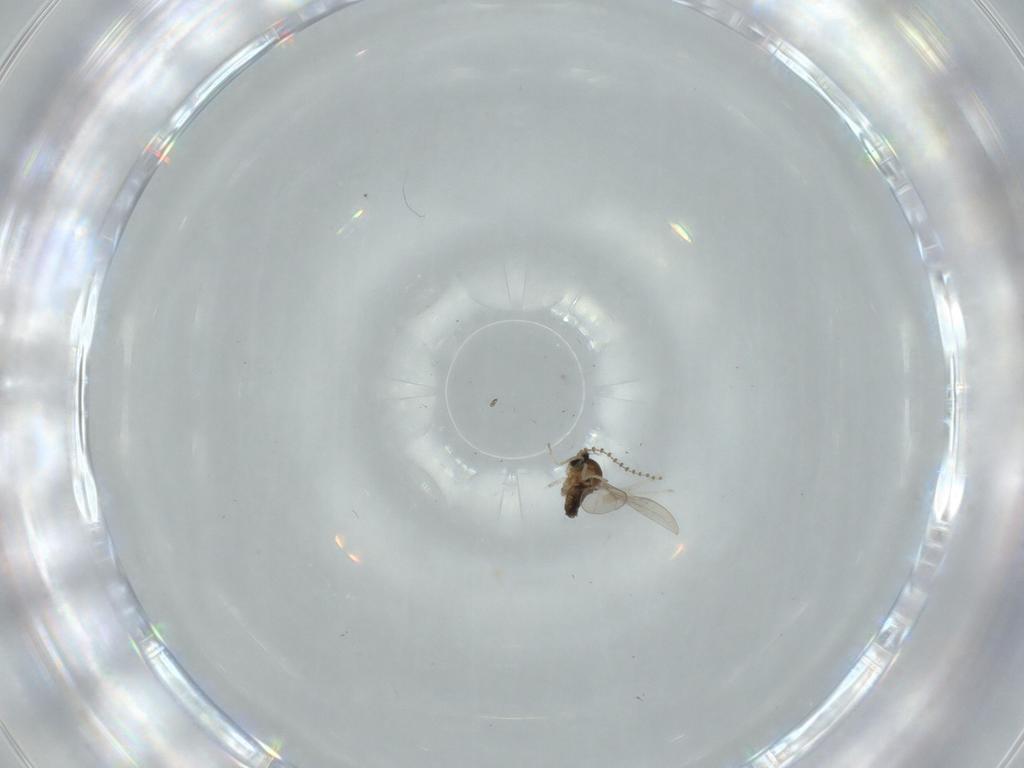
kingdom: Animalia
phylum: Arthropoda
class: Insecta
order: Diptera
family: Cecidomyiidae
